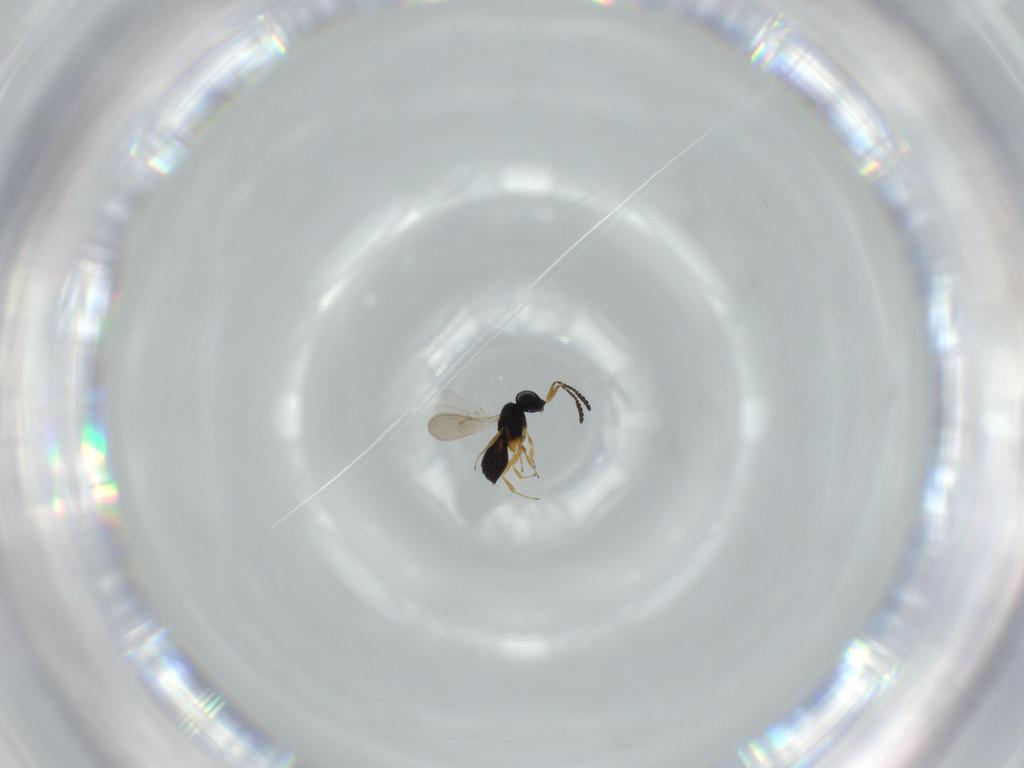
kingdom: Animalia
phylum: Arthropoda
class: Insecta
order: Hymenoptera
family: Scelionidae
